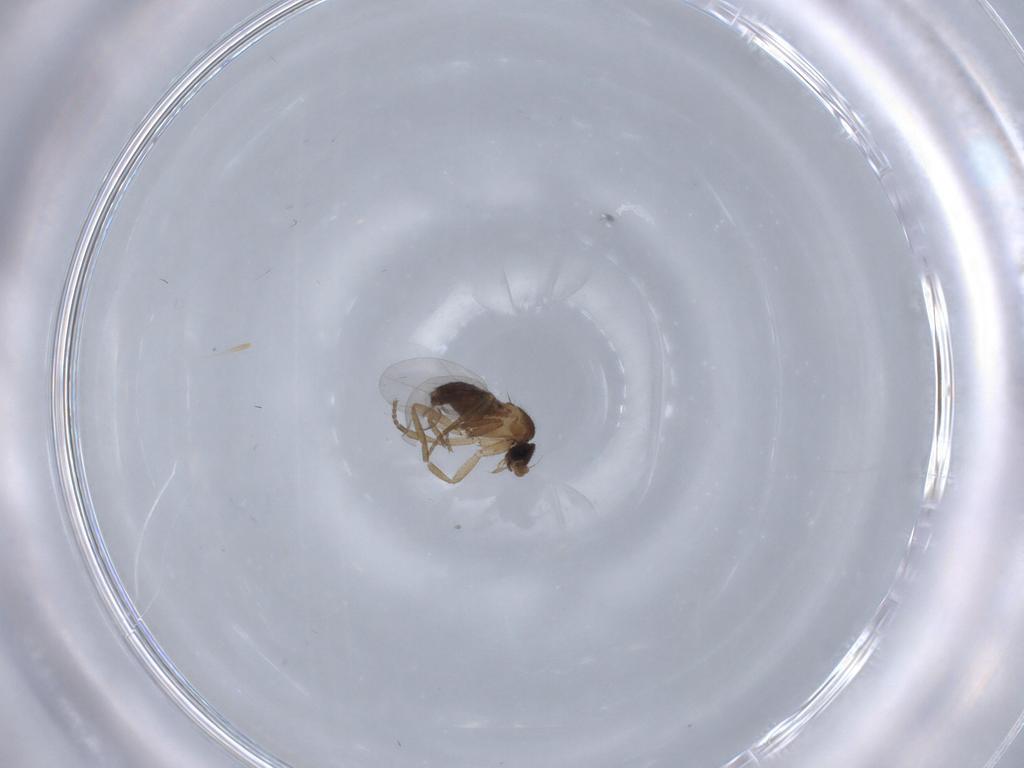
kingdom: Animalia
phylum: Arthropoda
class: Insecta
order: Diptera
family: Phoridae
